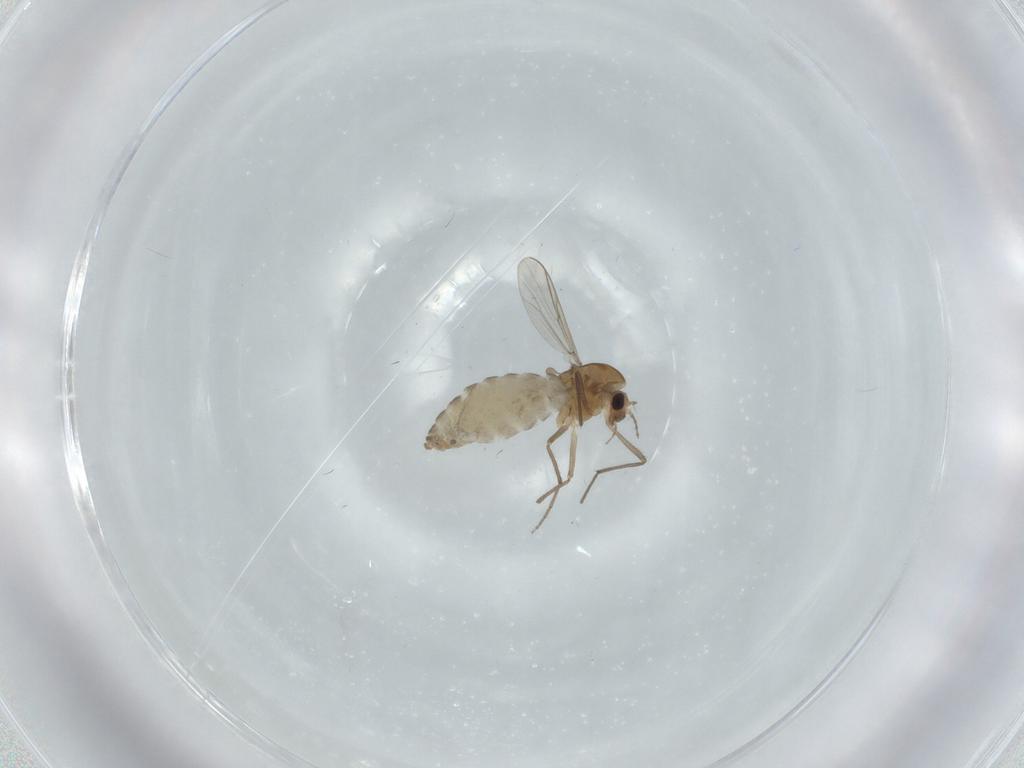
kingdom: Animalia
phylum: Arthropoda
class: Insecta
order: Diptera
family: Chironomidae
